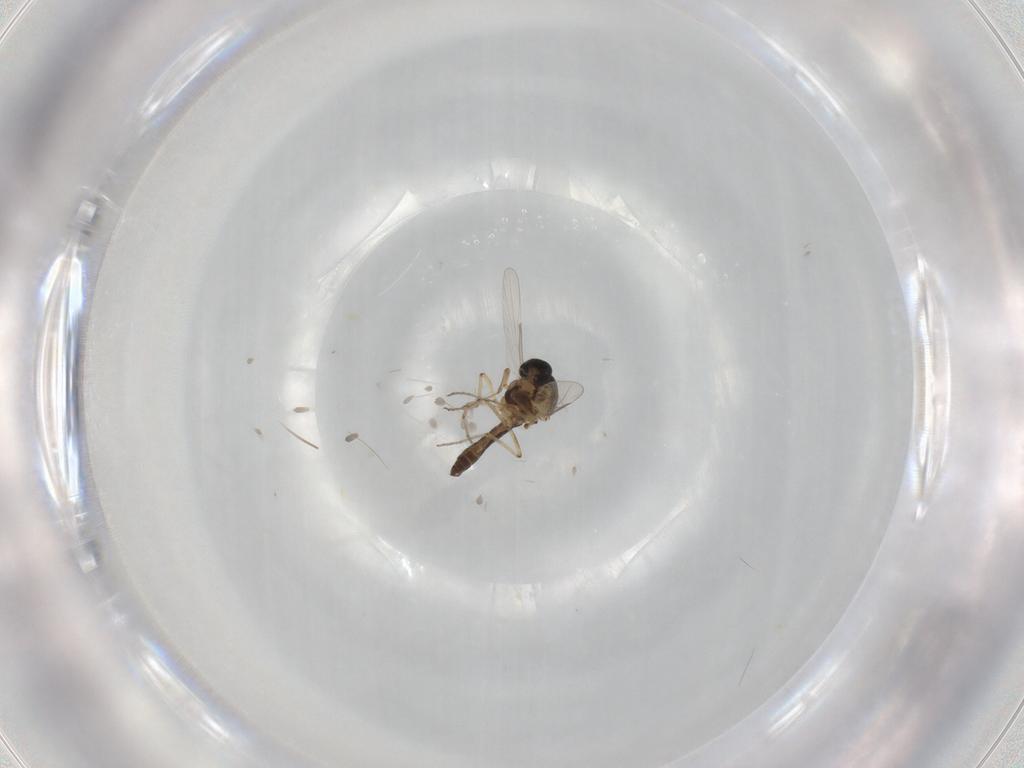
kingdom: Animalia
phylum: Arthropoda
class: Insecta
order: Diptera
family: Ceratopogonidae
